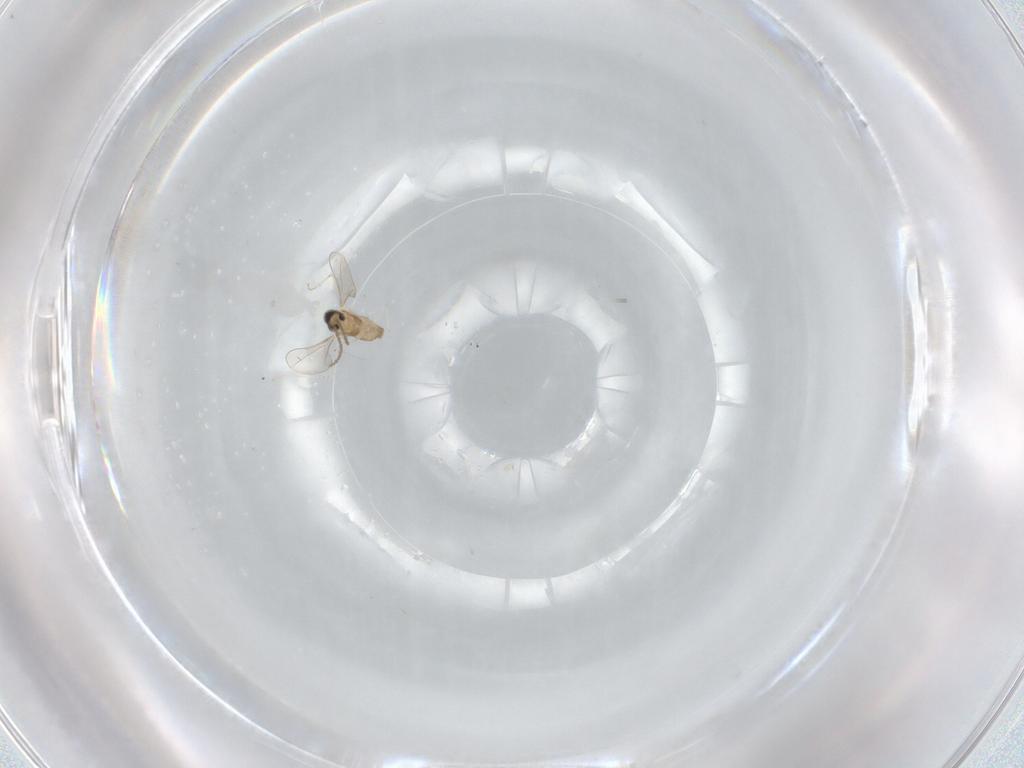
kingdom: Animalia
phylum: Arthropoda
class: Insecta
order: Diptera
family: Cecidomyiidae
